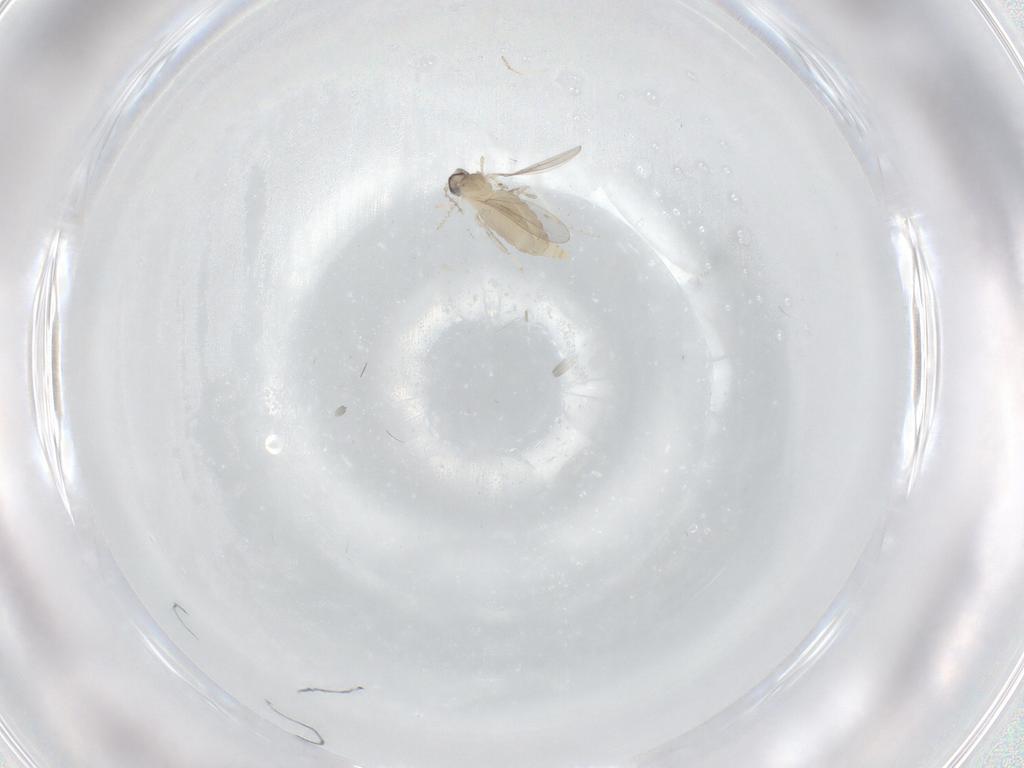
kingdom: Animalia
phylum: Arthropoda
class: Insecta
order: Diptera
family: Cecidomyiidae
